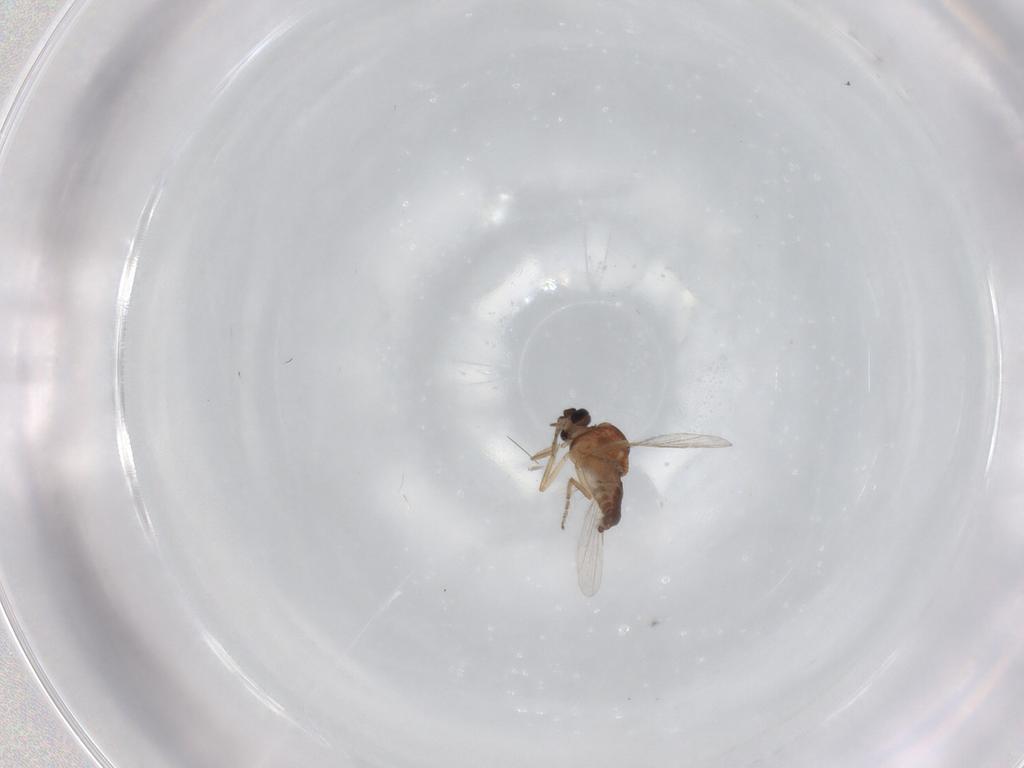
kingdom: Animalia
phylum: Arthropoda
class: Insecta
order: Diptera
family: Ceratopogonidae
